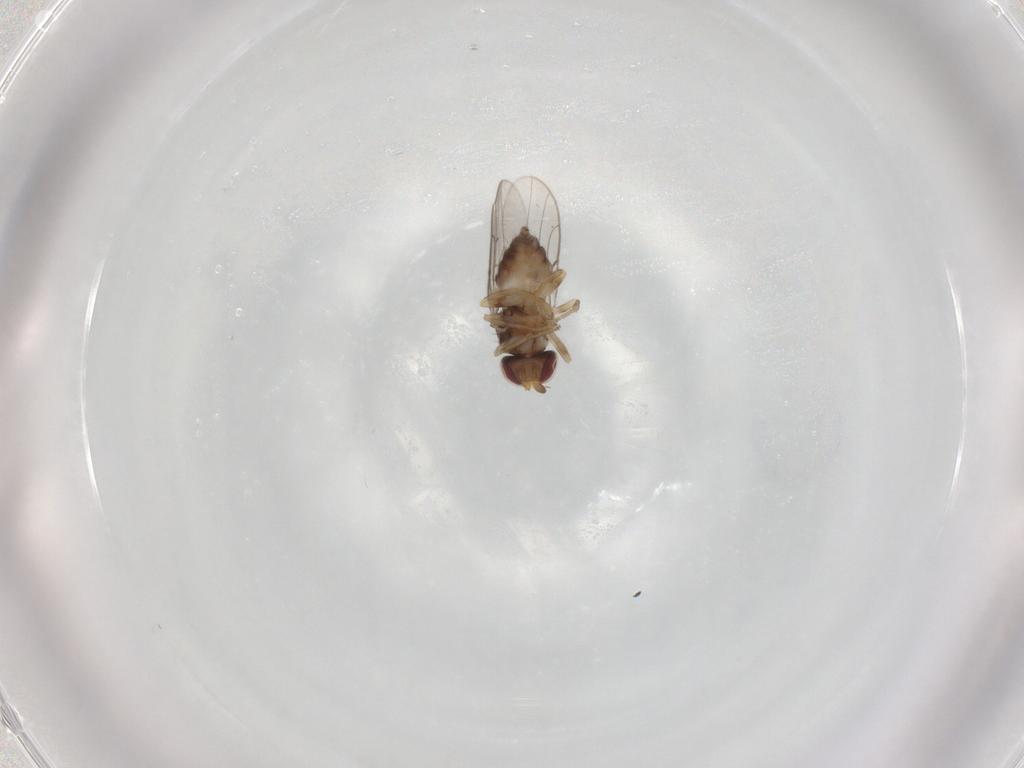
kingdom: Animalia
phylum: Arthropoda
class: Insecta
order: Diptera
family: Chloropidae
